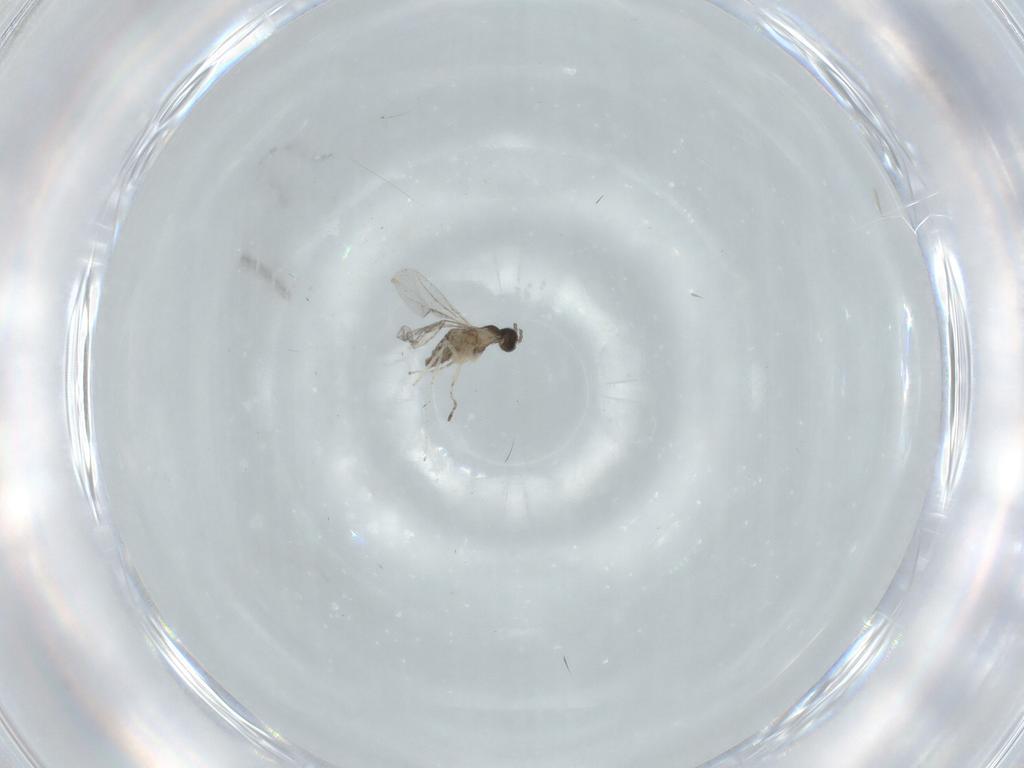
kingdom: Animalia
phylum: Arthropoda
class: Insecta
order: Diptera
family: Cecidomyiidae
